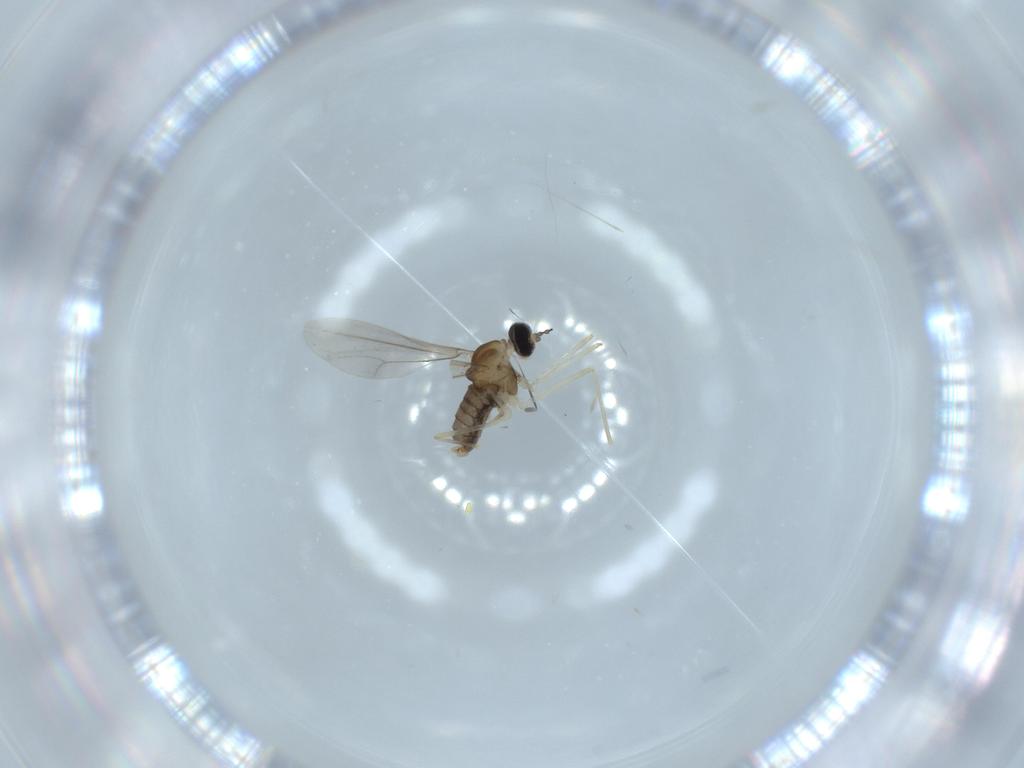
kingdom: Animalia
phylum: Arthropoda
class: Insecta
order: Diptera
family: Cecidomyiidae
